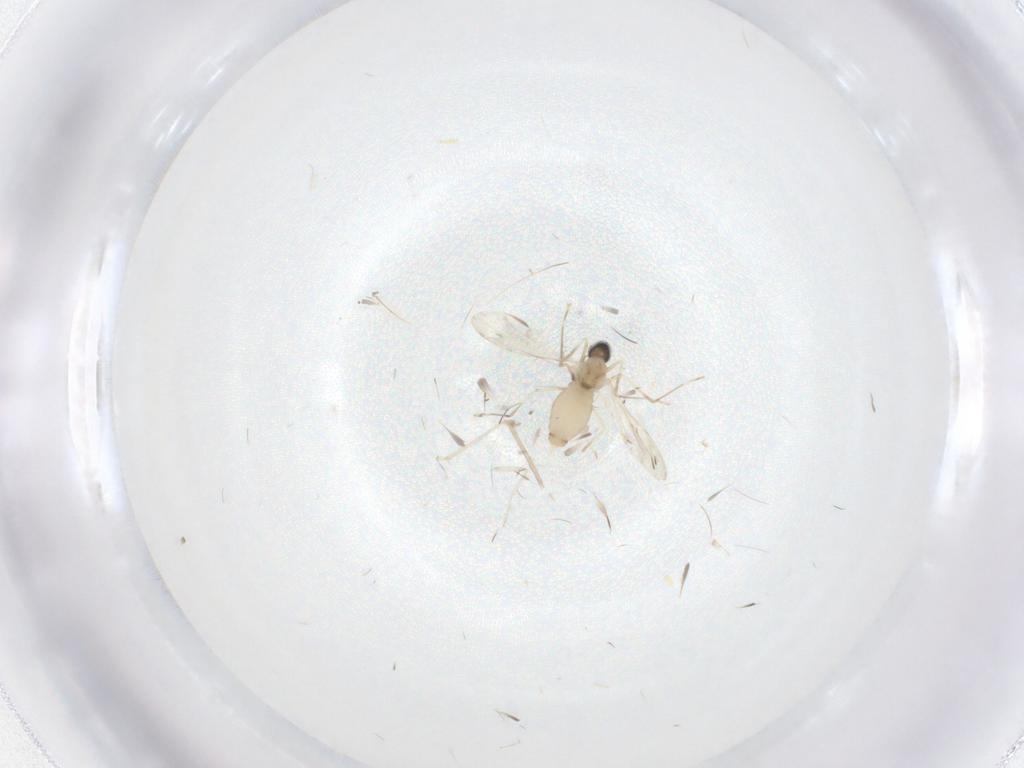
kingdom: Animalia
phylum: Arthropoda
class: Insecta
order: Diptera
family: Cecidomyiidae
